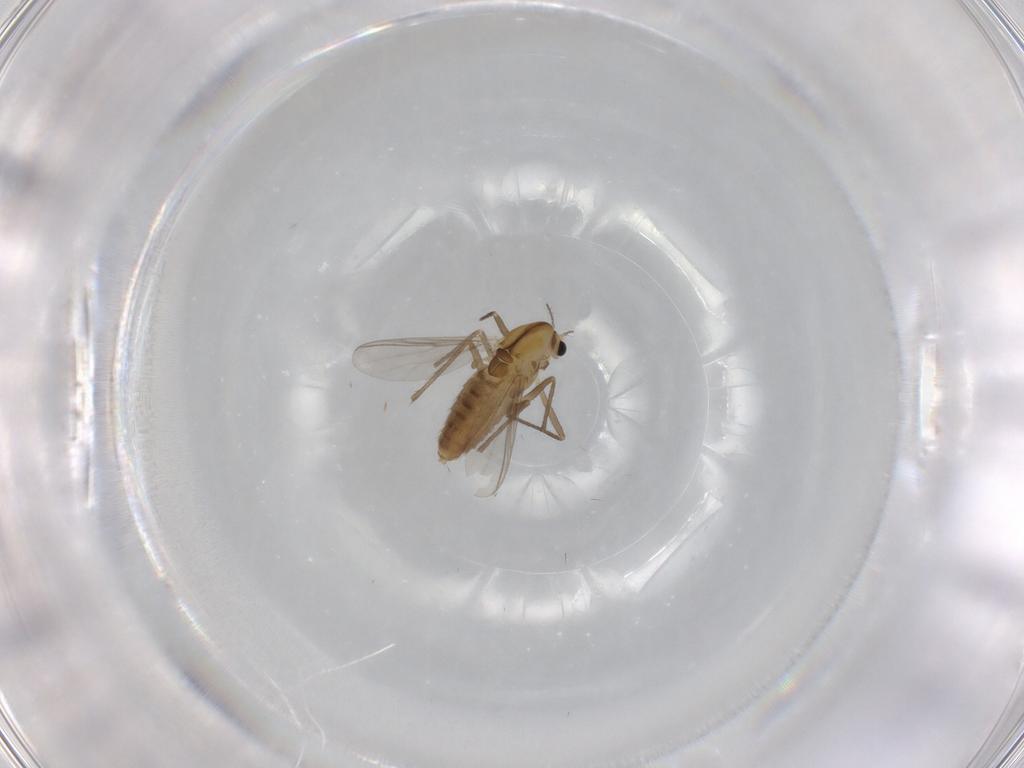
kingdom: Animalia
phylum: Arthropoda
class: Insecta
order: Diptera
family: Chironomidae
